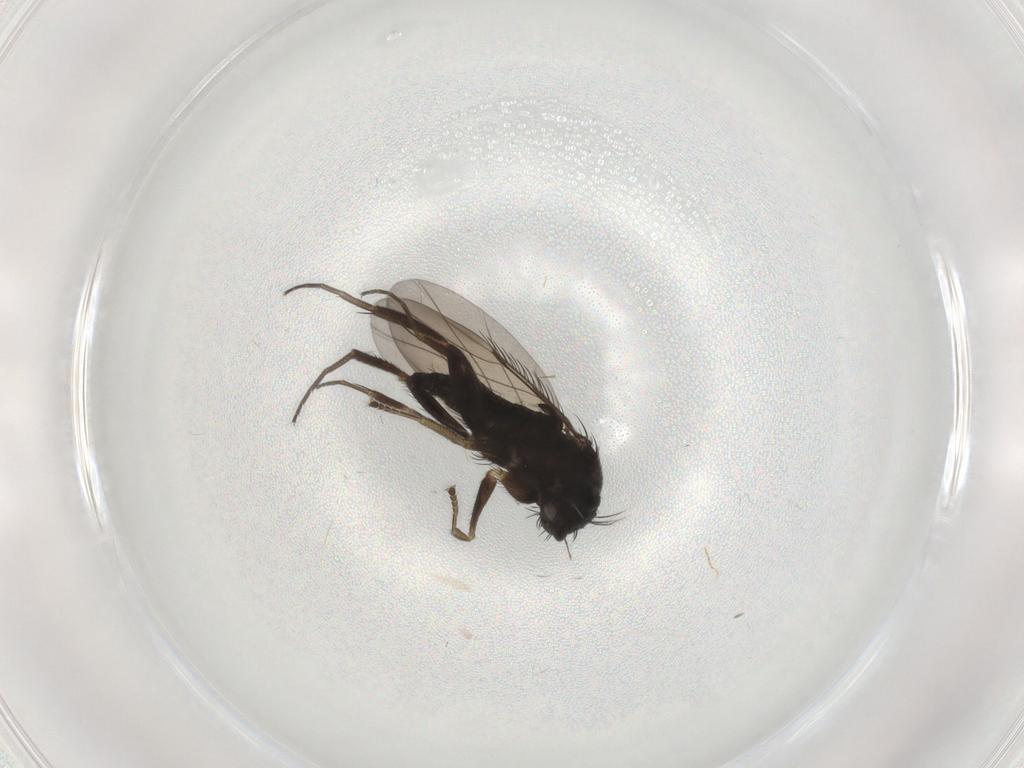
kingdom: Animalia
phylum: Arthropoda
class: Insecta
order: Diptera
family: Phoridae
